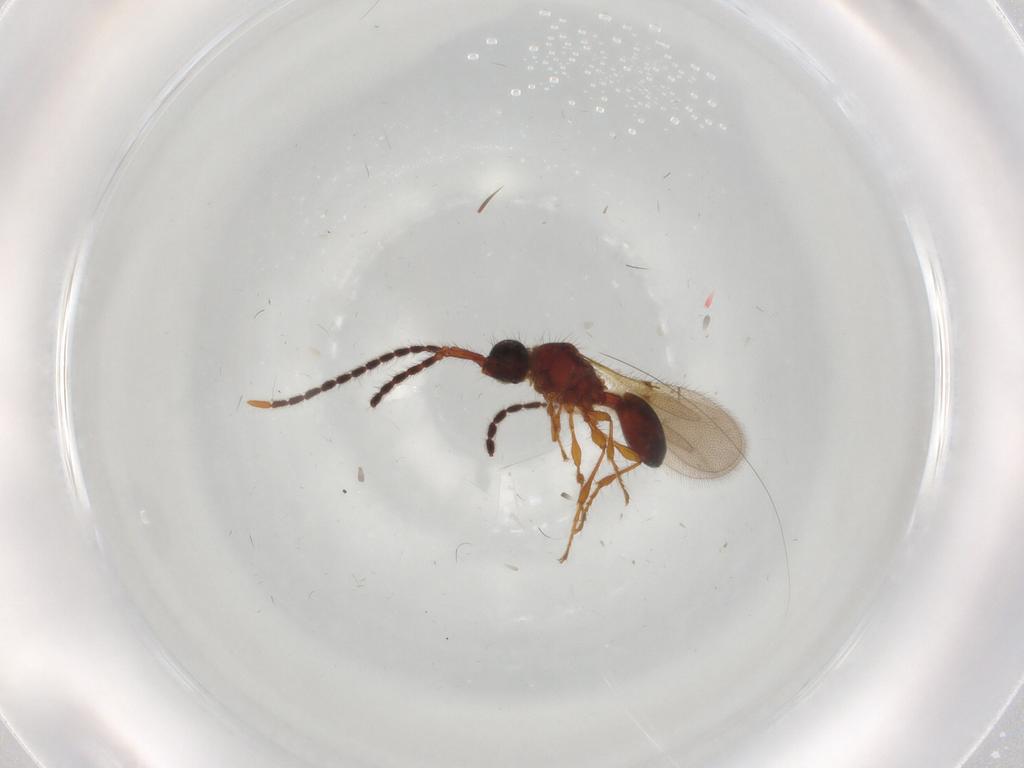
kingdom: Animalia
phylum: Arthropoda
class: Insecta
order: Hymenoptera
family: Diapriidae
